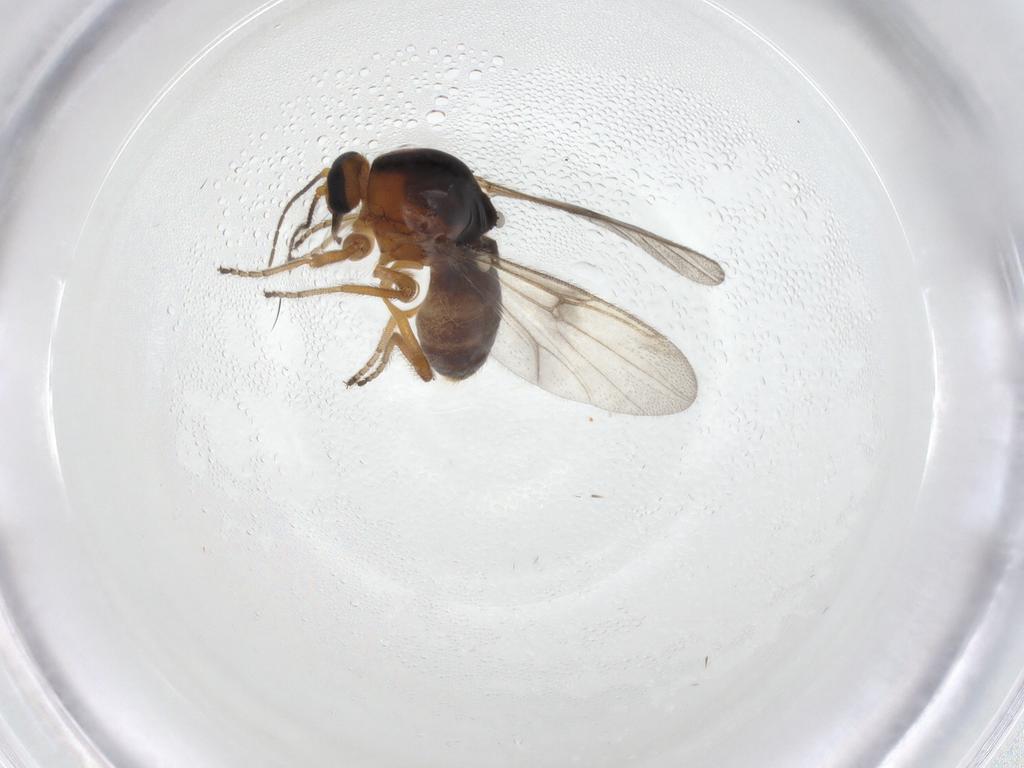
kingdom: Animalia
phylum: Arthropoda
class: Insecta
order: Diptera
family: Ceratopogonidae
